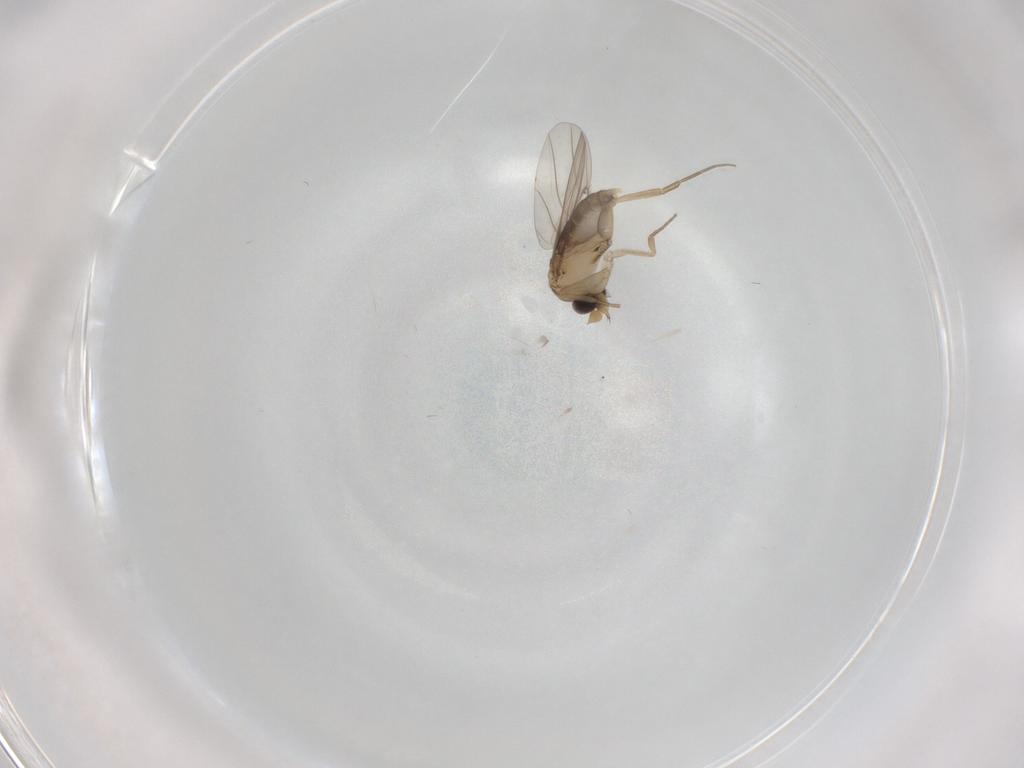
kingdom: Animalia
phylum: Arthropoda
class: Insecta
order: Diptera
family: Phoridae
